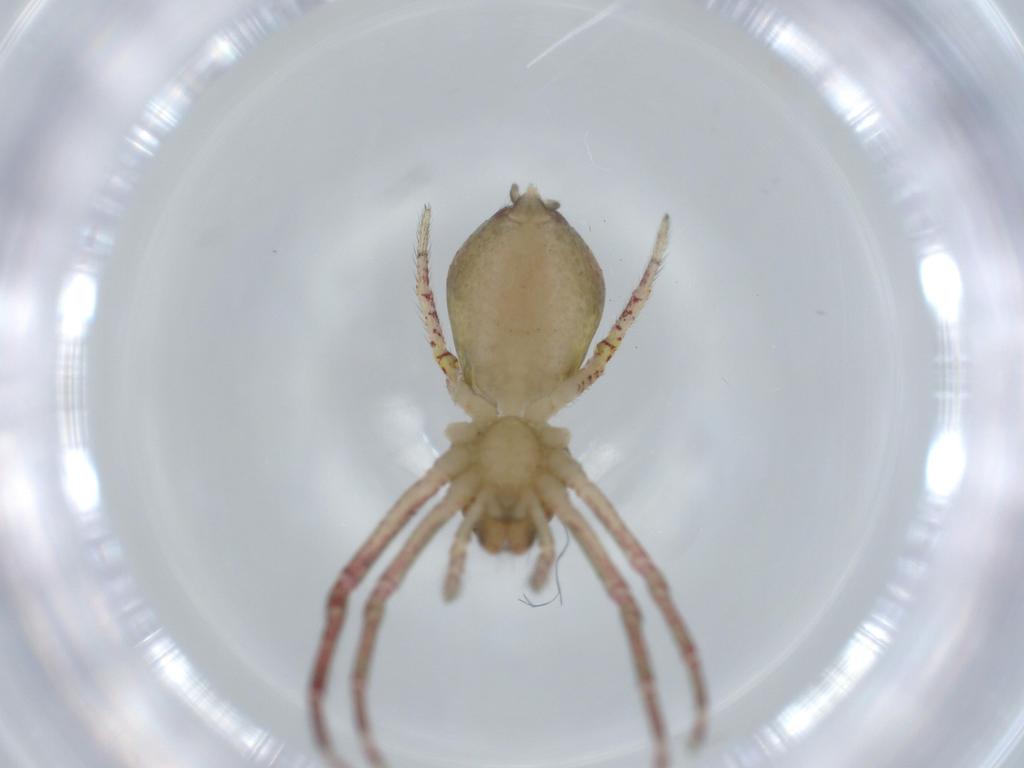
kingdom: Animalia
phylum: Arthropoda
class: Arachnida
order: Araneae
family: Thomisidae
